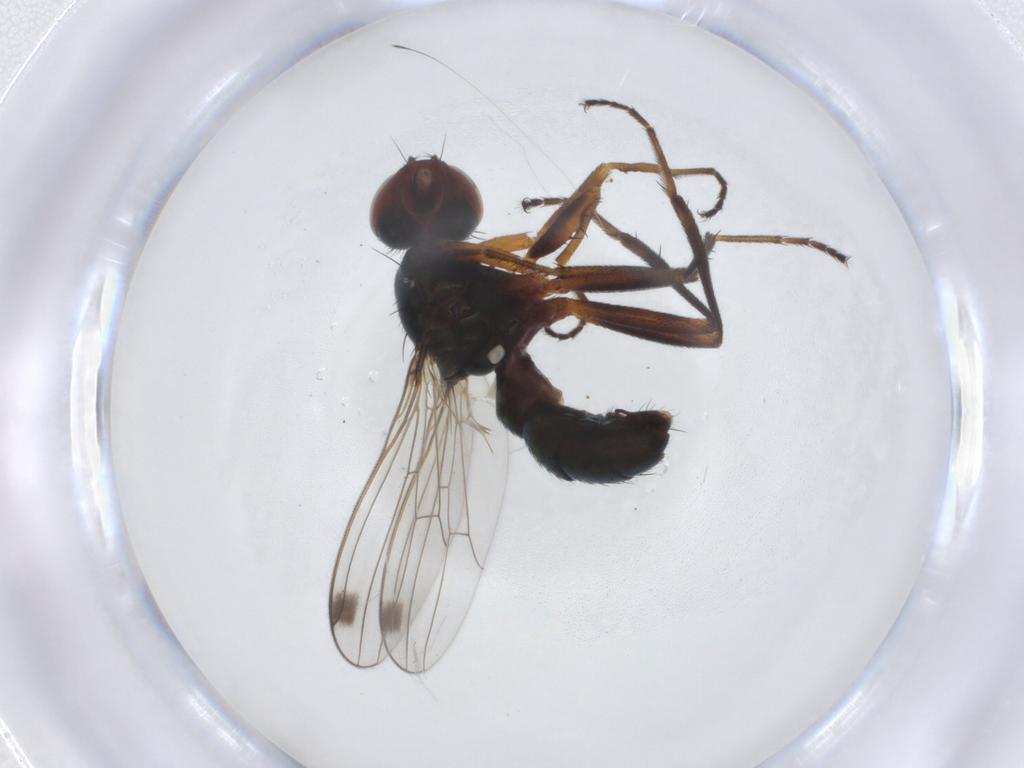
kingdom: Animalia
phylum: Arthropoda
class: Insecta
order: Diptera
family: Sepsidae
